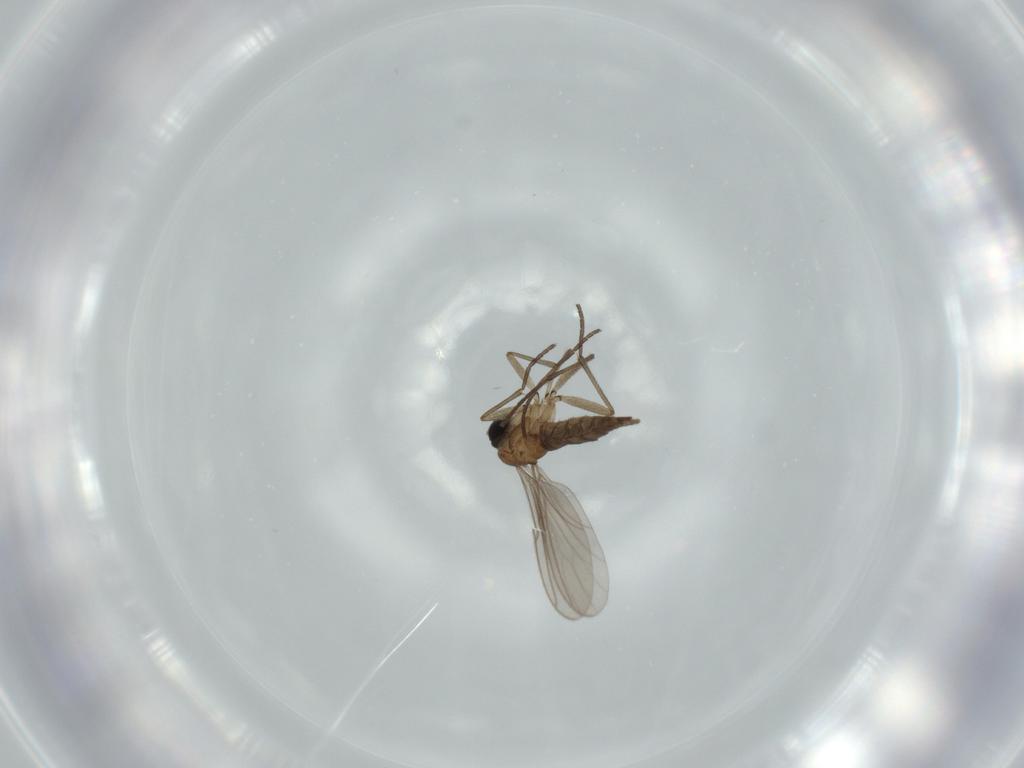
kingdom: Animalia
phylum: Arthropoda
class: Insecta
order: Diptera
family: Sciaridae
